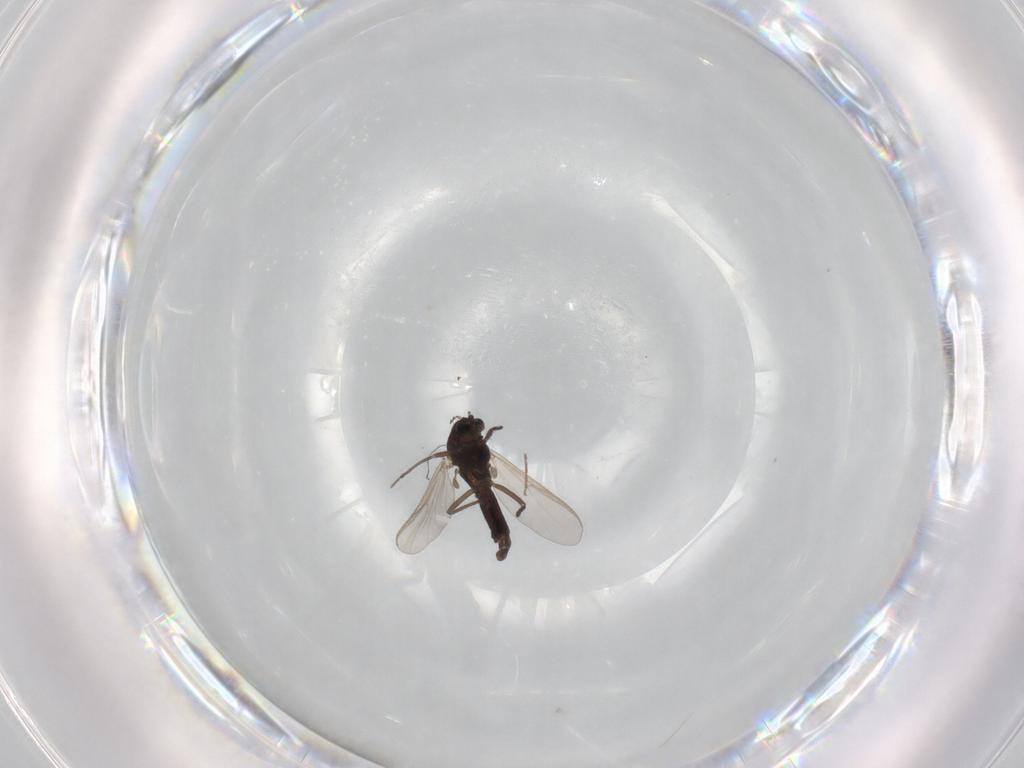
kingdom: Animalia
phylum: Arthropoda
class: Insecta
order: Diptera
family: Chironomidae
